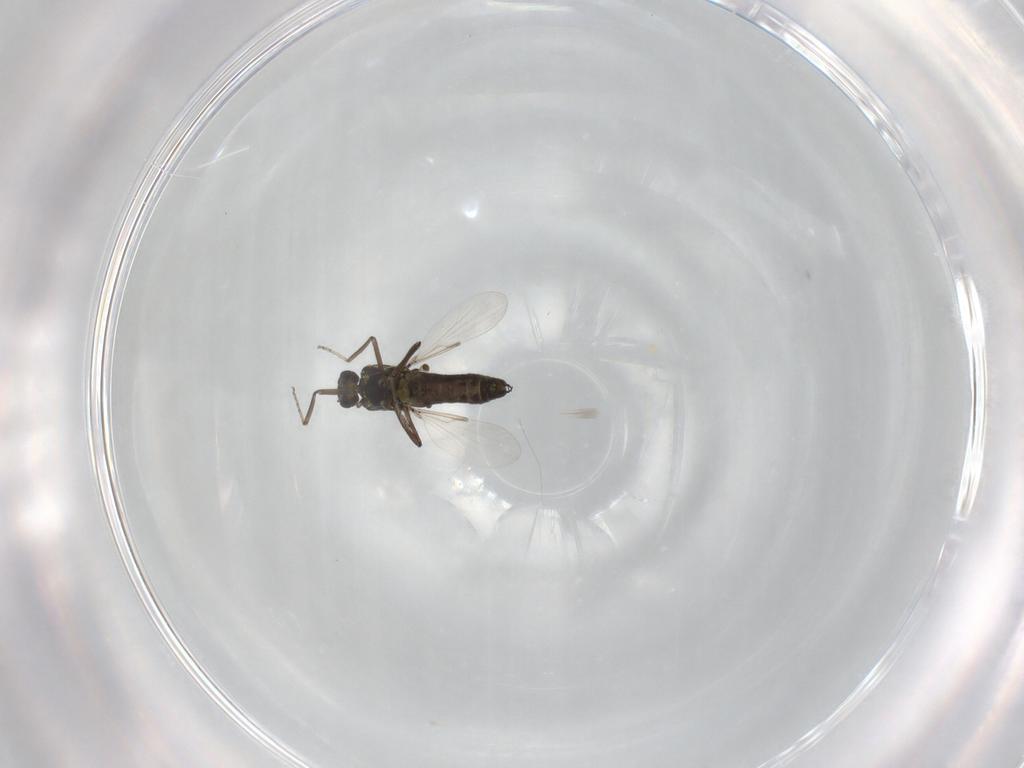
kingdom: Animalia
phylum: Arthropoda
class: Insecta
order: Diptera
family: Ceratopogonidae
